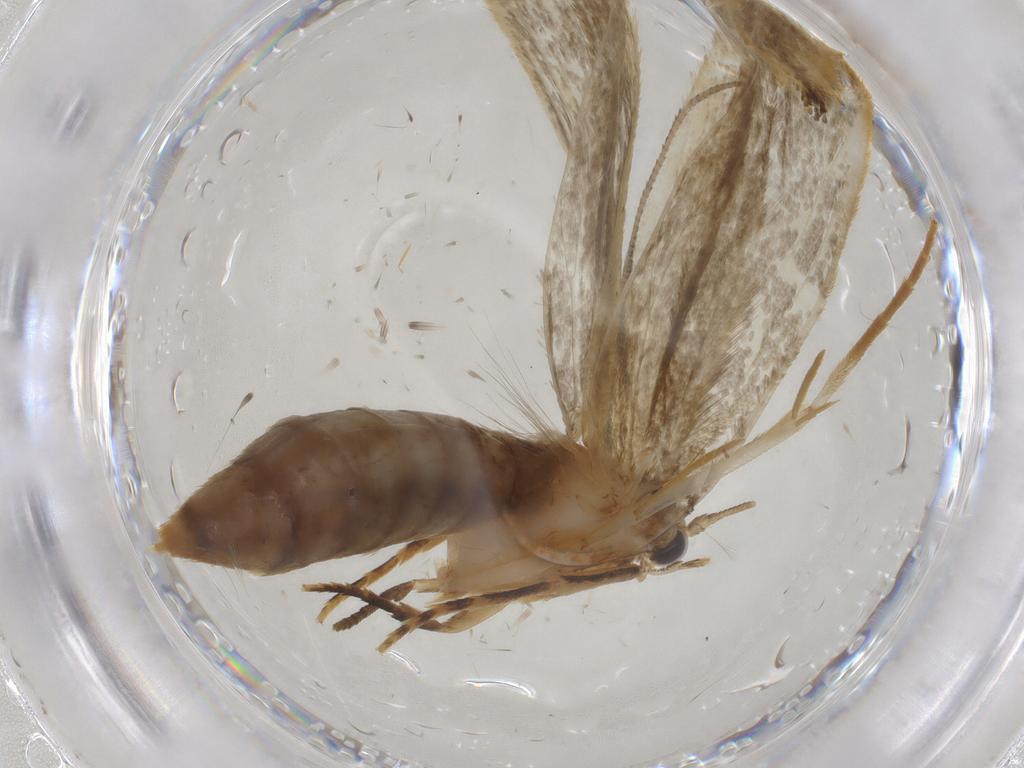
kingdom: Animalia
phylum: Arthropoda
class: Insecta
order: Lepidoptera
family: Tineidae
